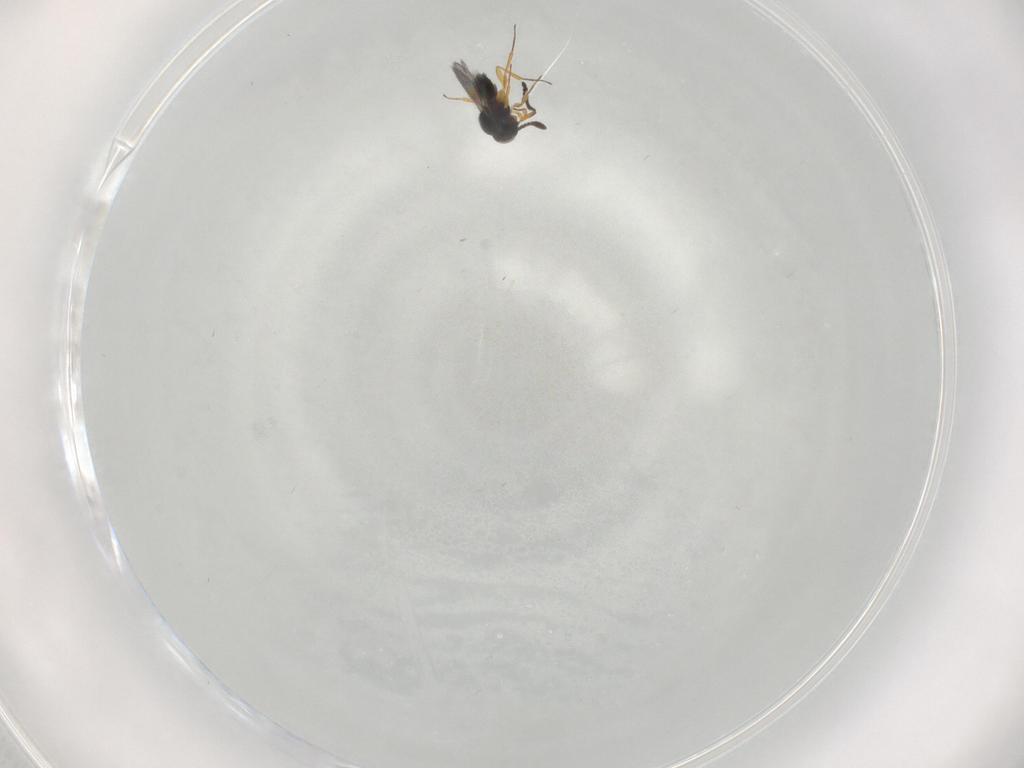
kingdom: Animalia
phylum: Arthropoda
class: Insecta
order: Hymenoptera
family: Scelionidae
